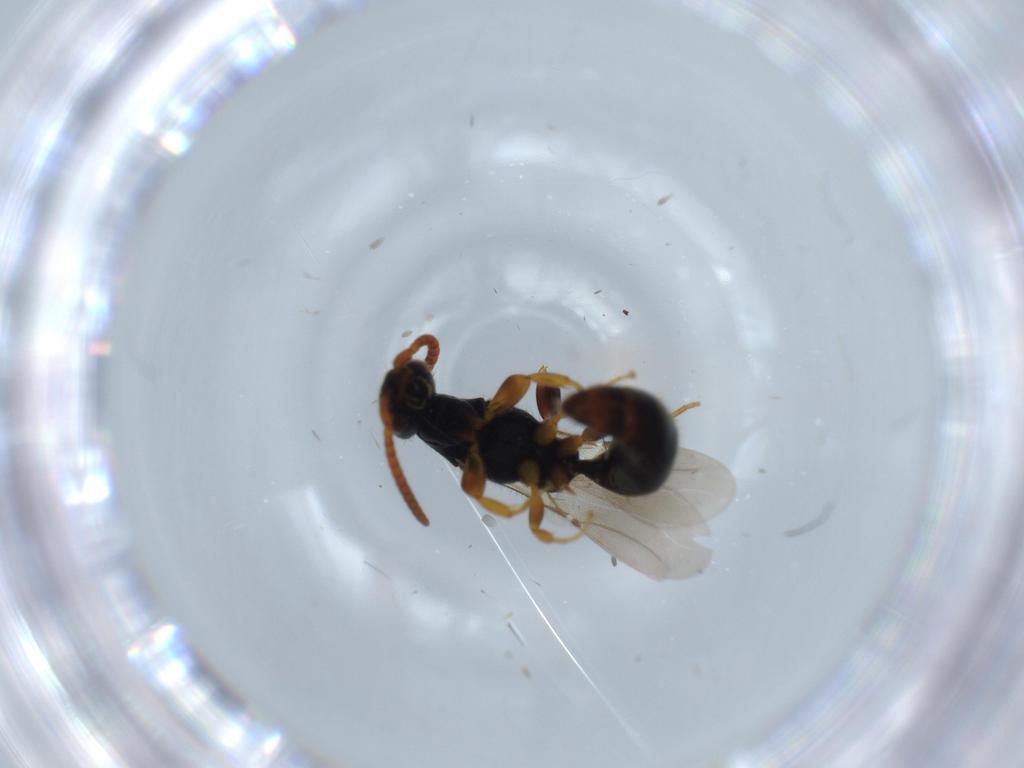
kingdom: Animalia
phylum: Arthropoda
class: Insecta
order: Hymenoptera
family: Bethylidae
